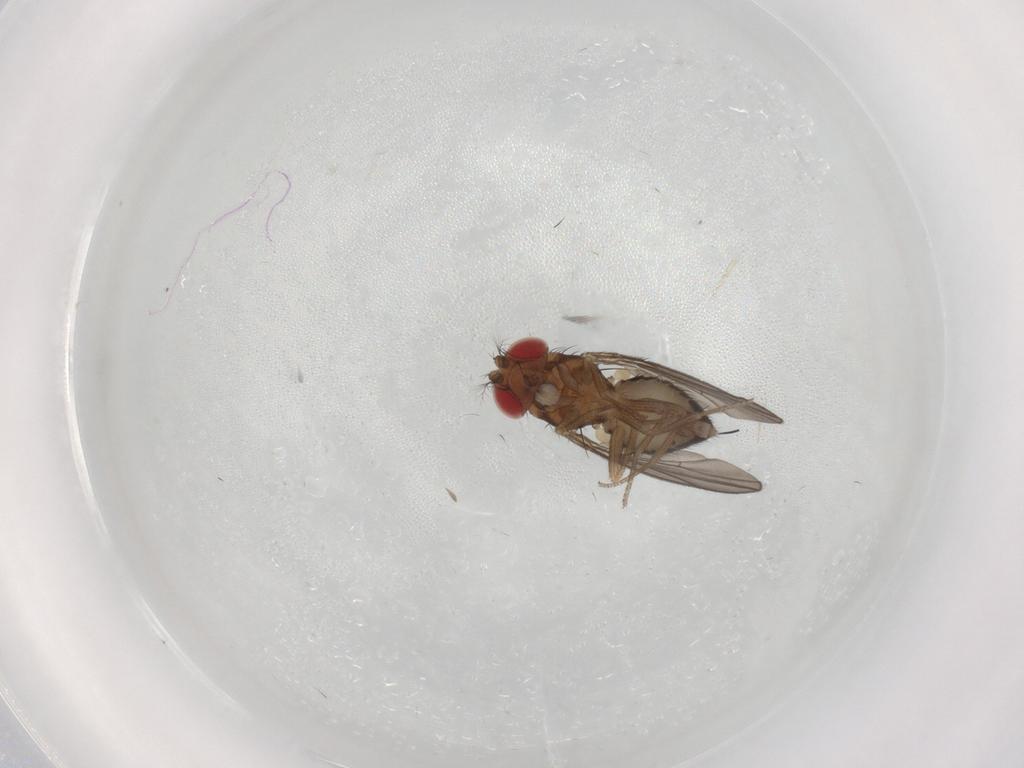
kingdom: Animalia
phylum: Arthropoda
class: Insecta
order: Diptera
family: Drosophilidae
